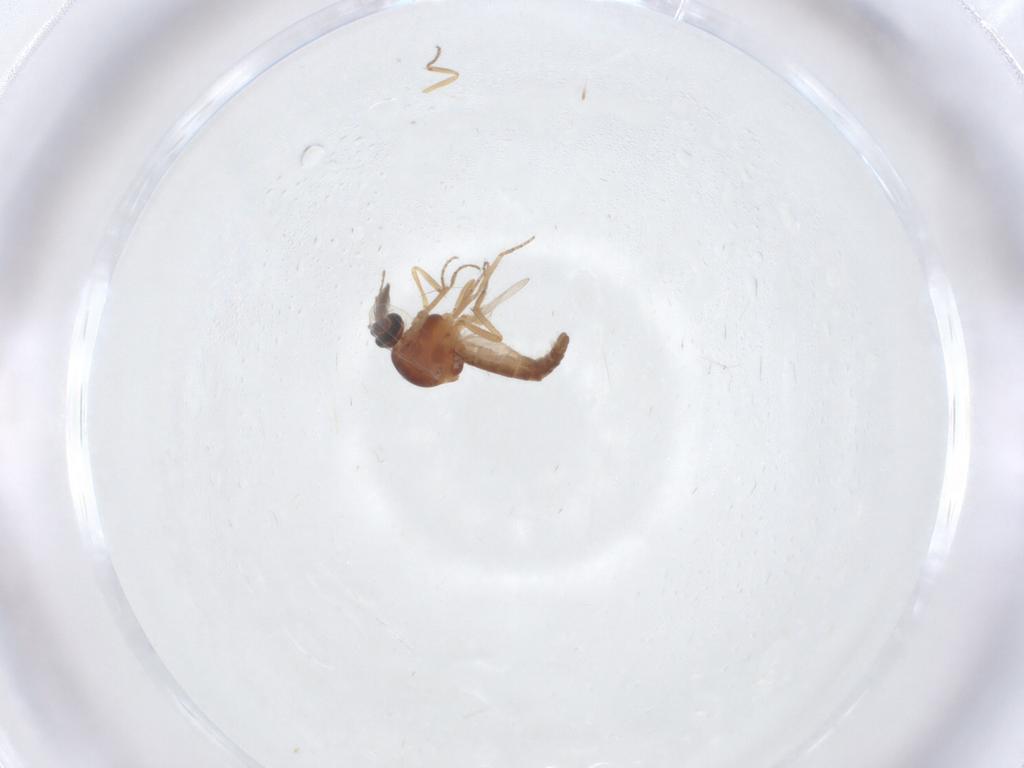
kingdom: Animalia
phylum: Arthropoda
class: Insecta
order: Diptera
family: Ceratopogonidae
